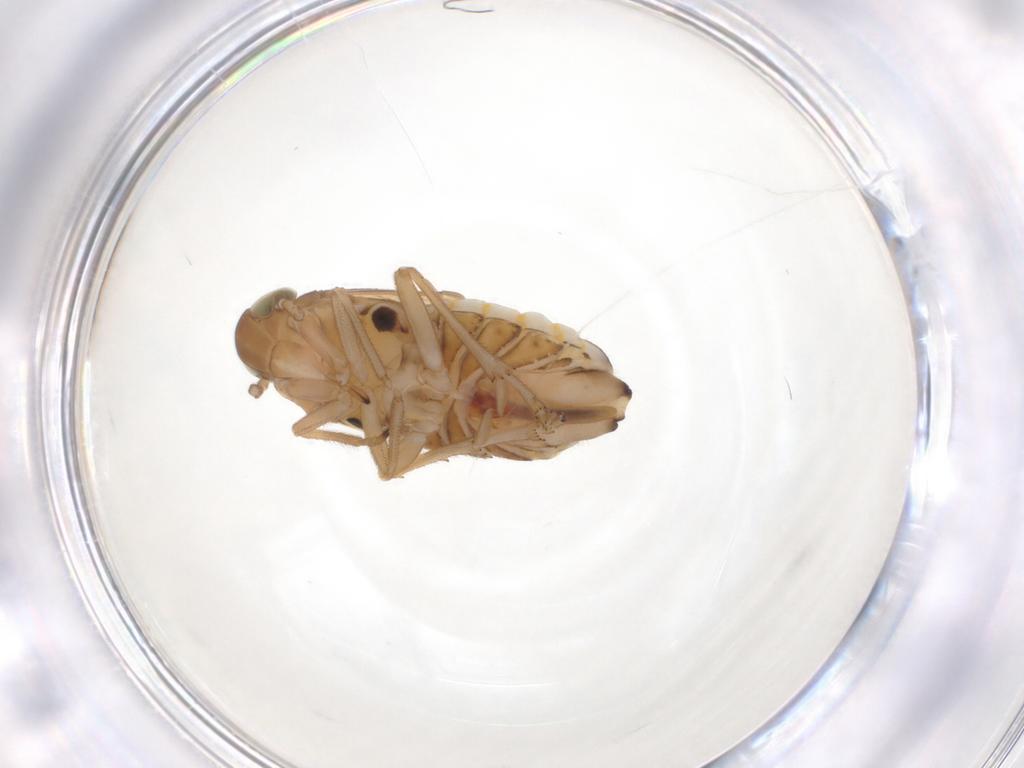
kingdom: Animalia
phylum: Arthropoda
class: Insecta
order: Hemiptera
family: Delphacidae
